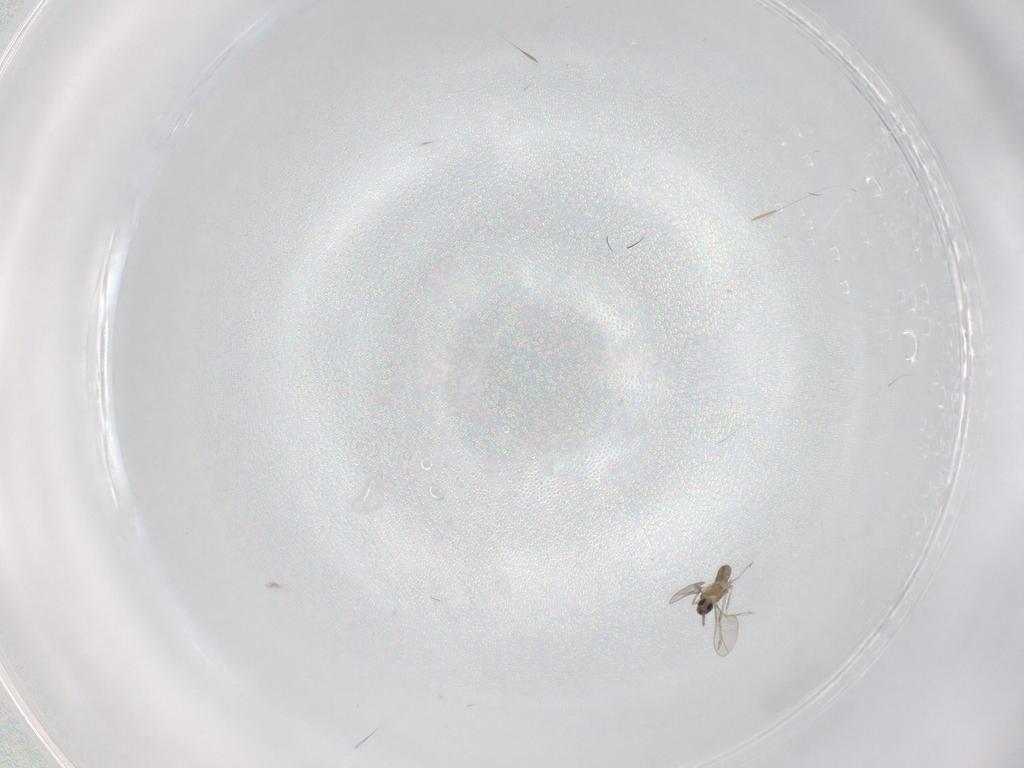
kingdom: Animalia
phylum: Arthropoda
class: Insecta
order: Diptera
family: Cecidomyiidae
